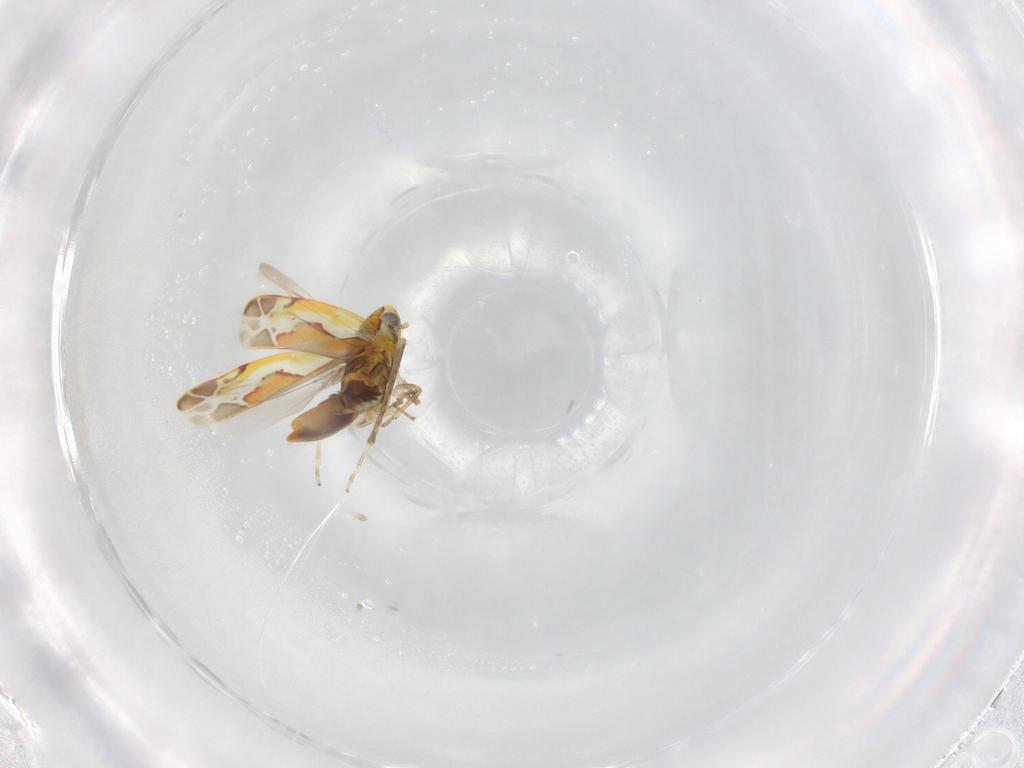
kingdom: Animalia
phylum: Arthropoda
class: Insecta
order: Hemiptera
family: Cicadellidae
